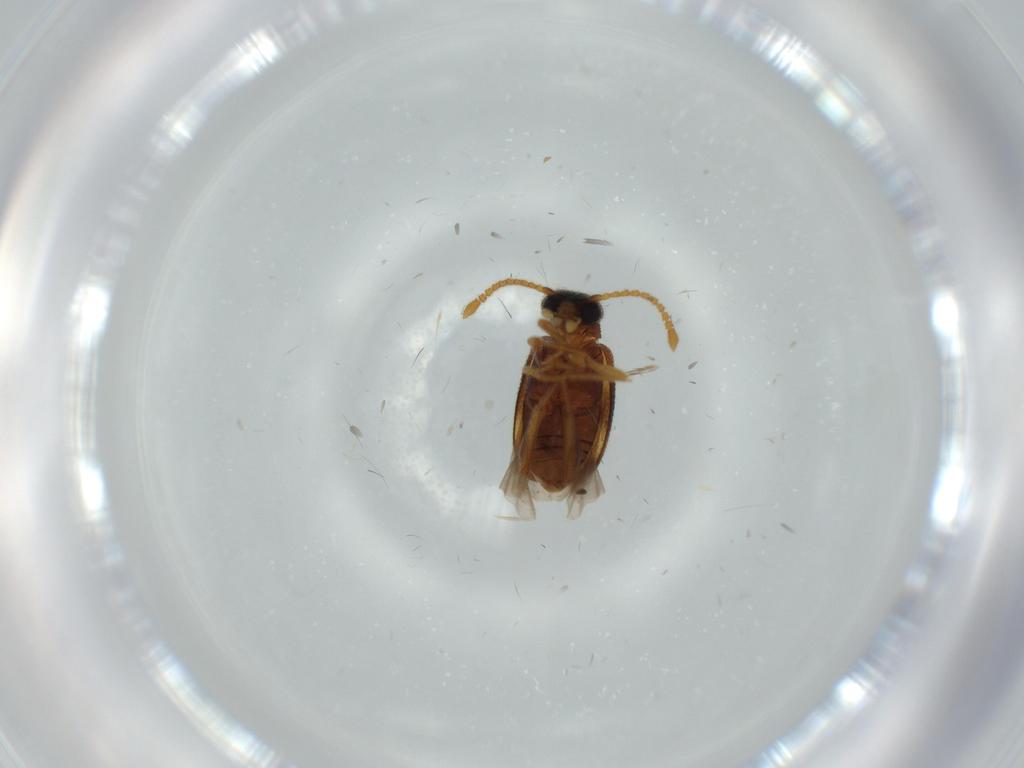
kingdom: Animalia
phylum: Arthropoda
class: Insecta
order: Coleoptera
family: Aderidae
